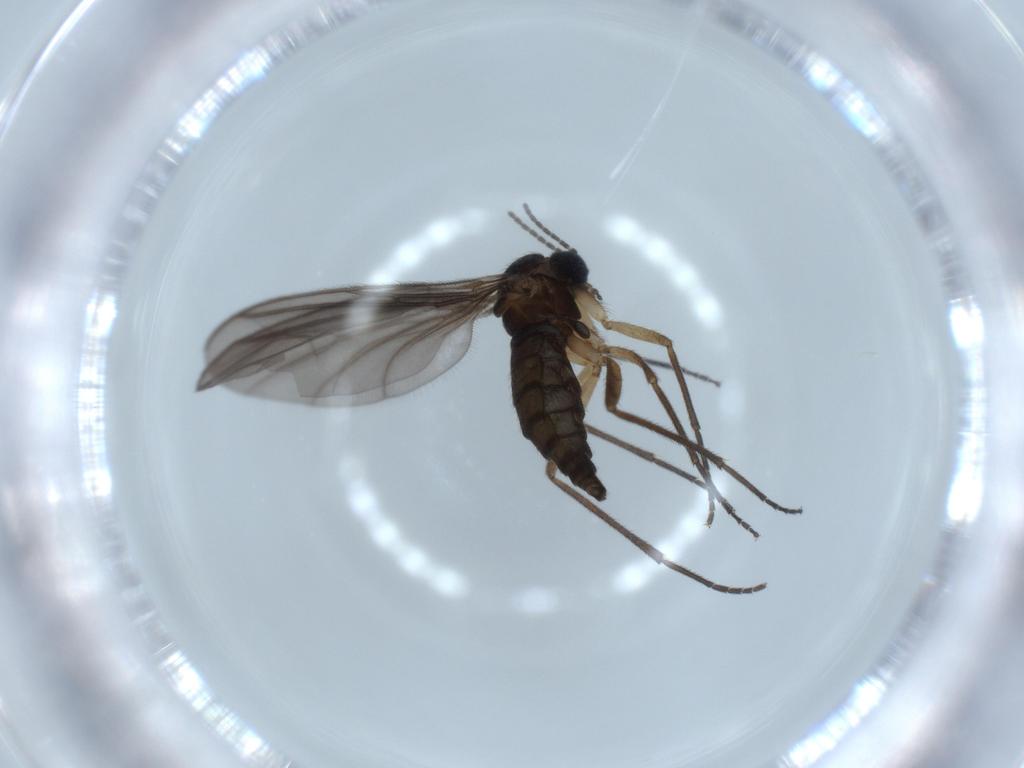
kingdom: Animalia
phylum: Arthropoda
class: Insecta
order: Diptera
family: Sciaridae
